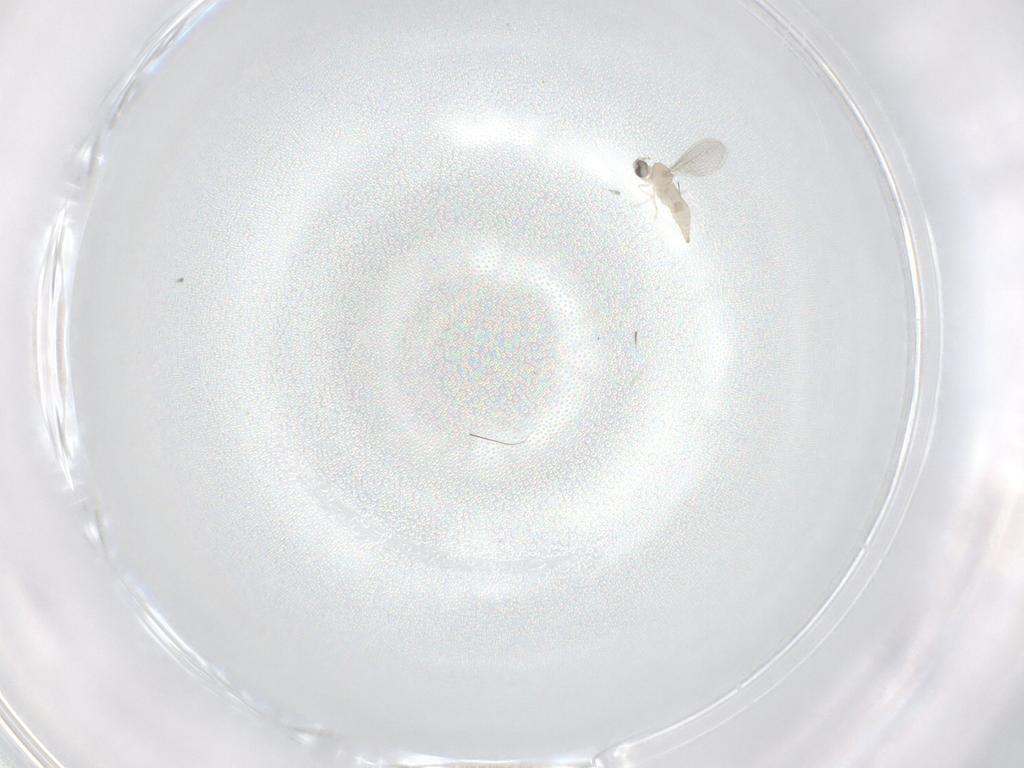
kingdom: Animalia
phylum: Arthropoda
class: Insecta
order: Diptera
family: Cecidomyiidae
